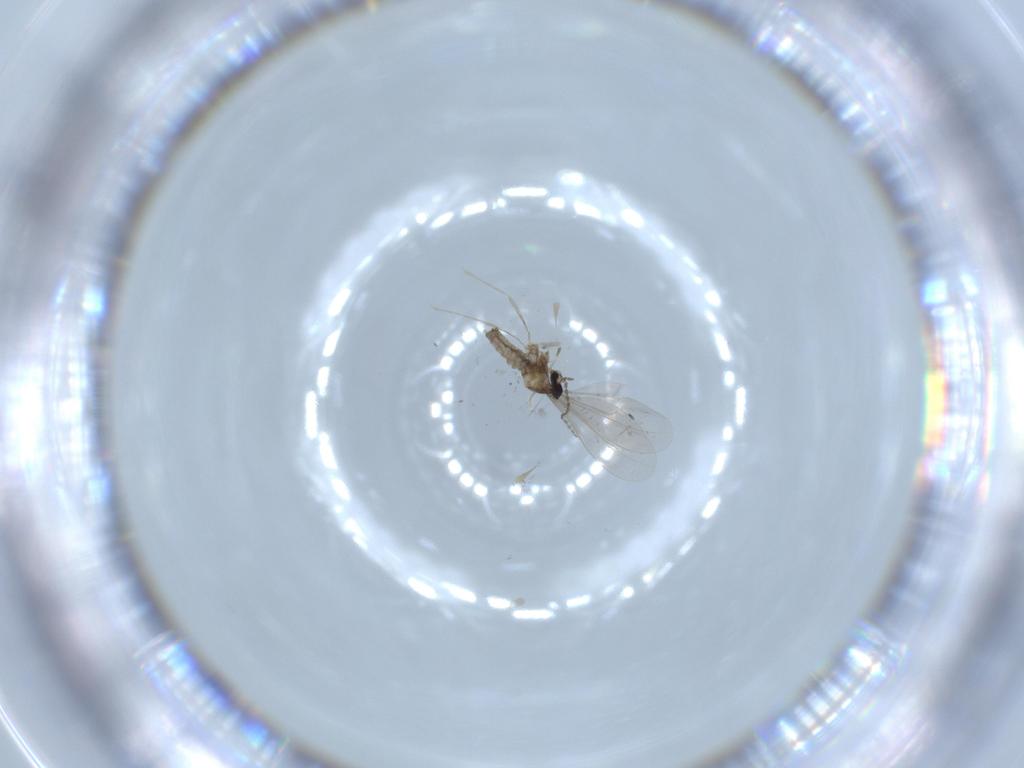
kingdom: Animalia
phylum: Arthropoda
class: Insecta
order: Diptera
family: Cecidomyiidae
